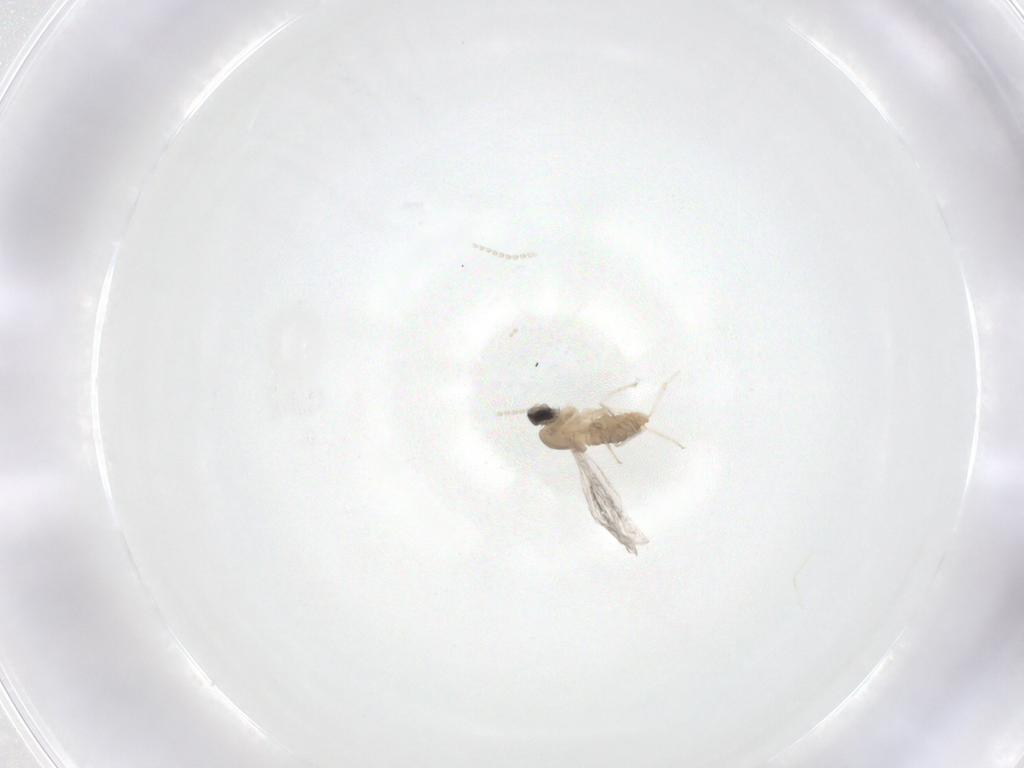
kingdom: Animalia
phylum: Arthropoda
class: Insecta
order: Diptera
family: Cecidomyiidae
